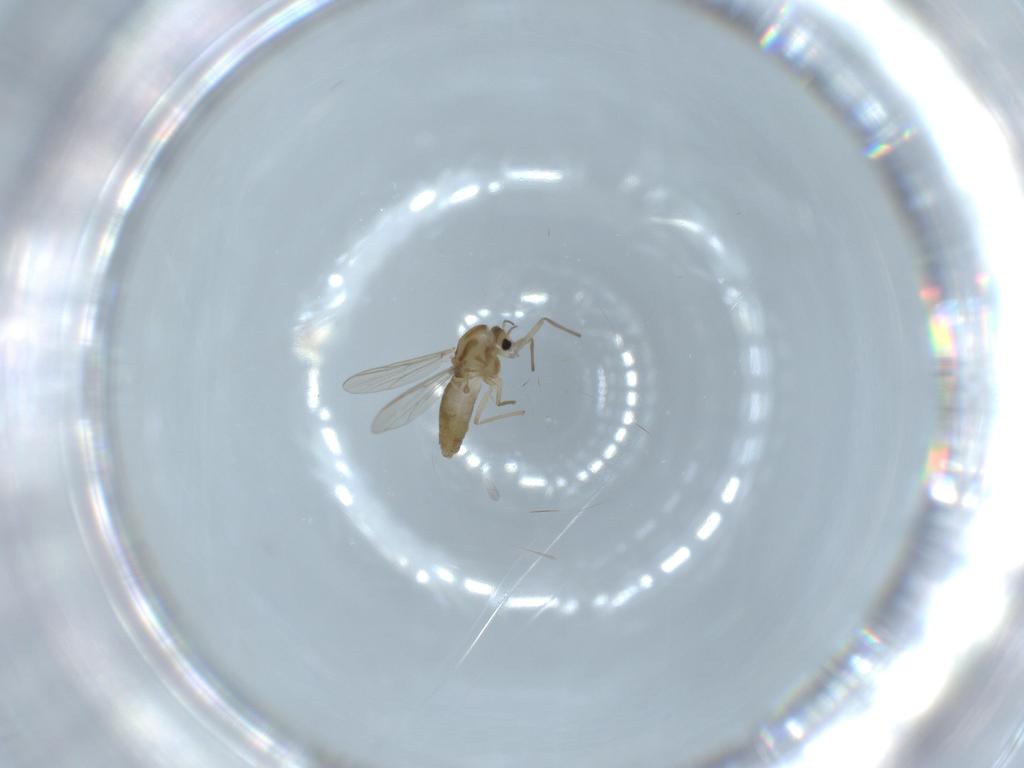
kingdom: Animalia
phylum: Arthropoda
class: Insecta
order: Diptera
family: Chironomidae
